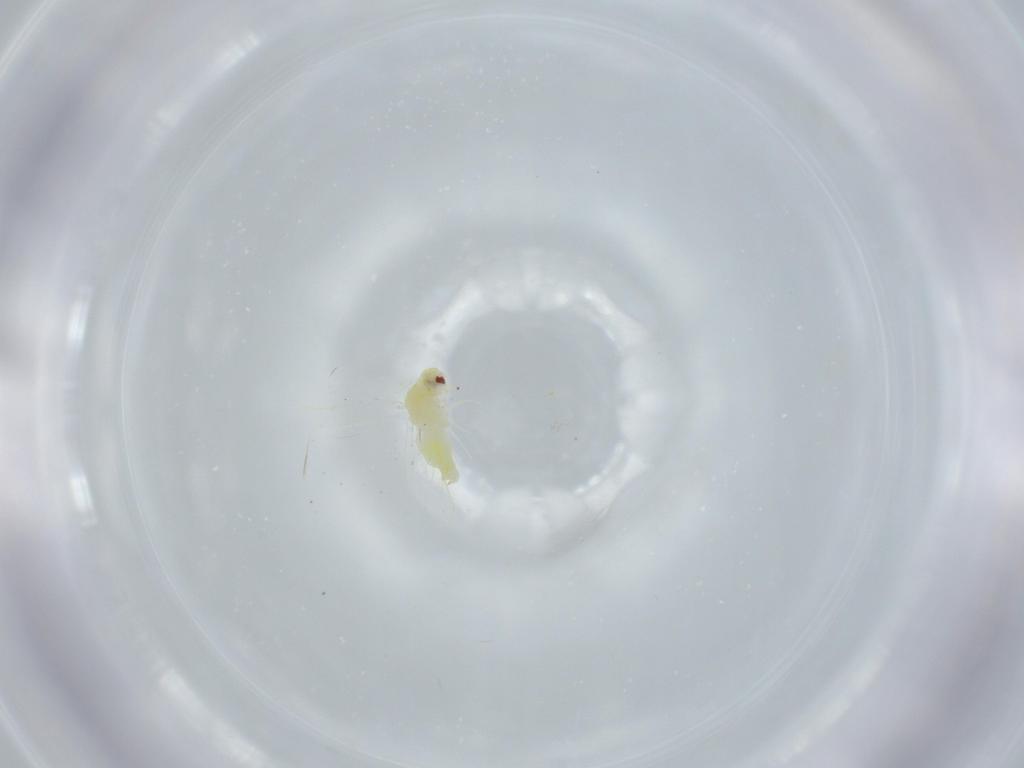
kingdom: Animalia
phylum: Arthropoda
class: Insecta
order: Hemiptera
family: Aleyrodidae
